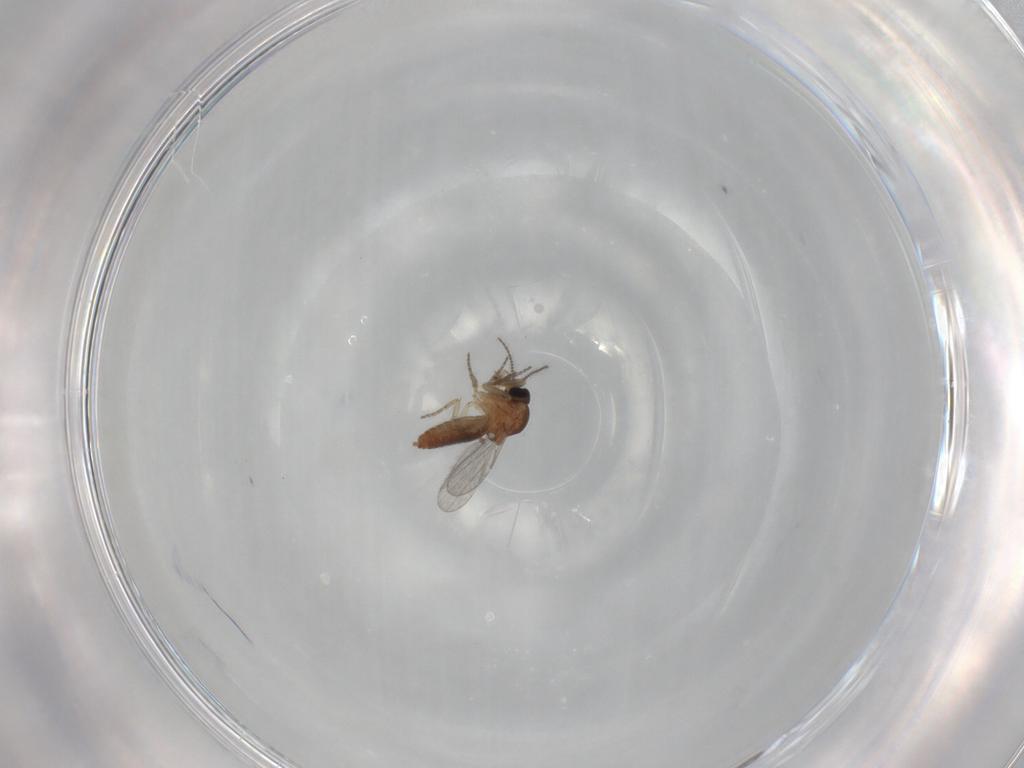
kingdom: Animalia
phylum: Arthropoda
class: Insecta
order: Diptera
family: Ceratopogonidae
